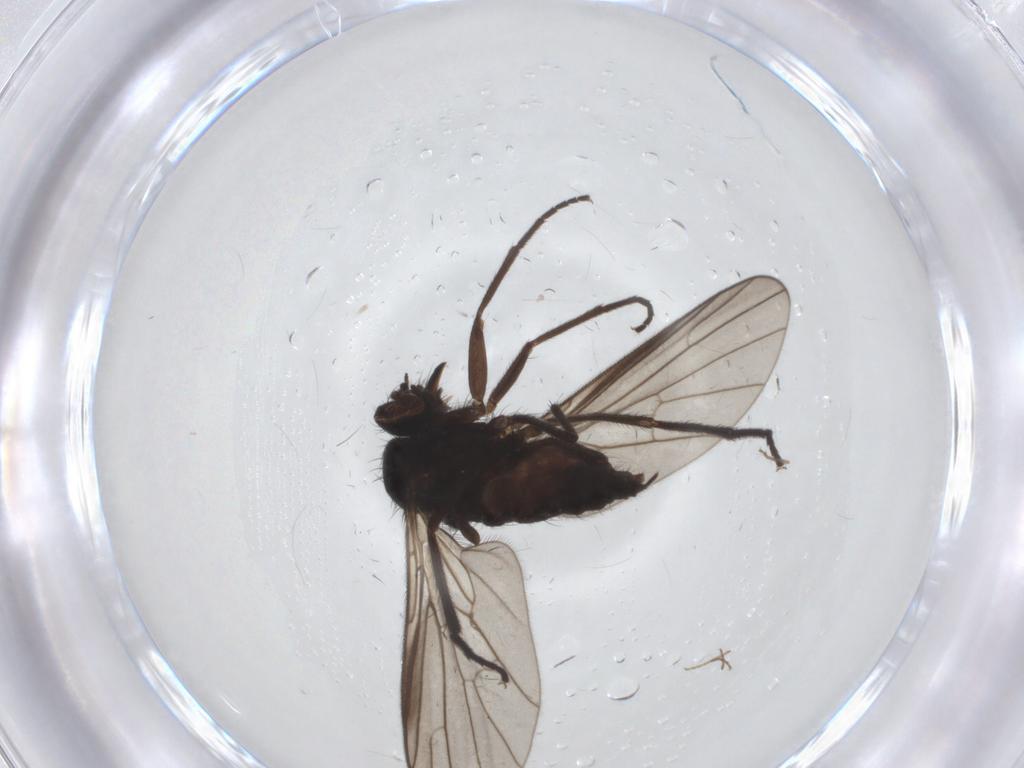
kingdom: Animalia
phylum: Arthropoda
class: Insecta
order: Diptera
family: Empididae
